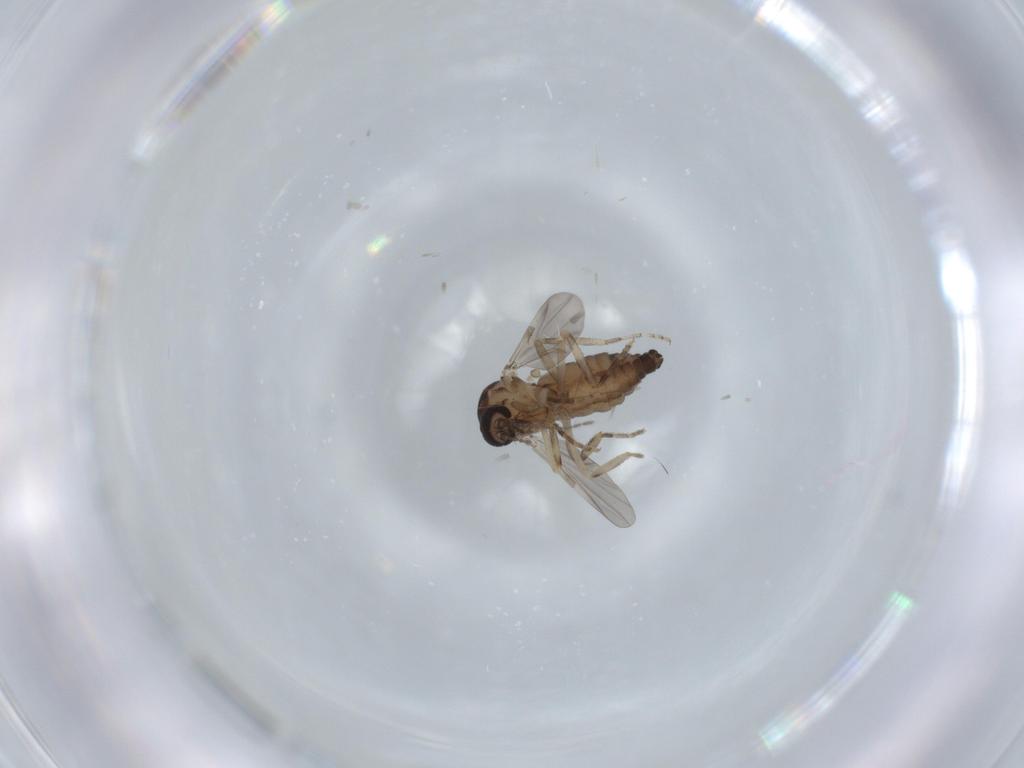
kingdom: Animalia
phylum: Arthropoda
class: Insecta
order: Diptera
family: Ceratopogonidae
